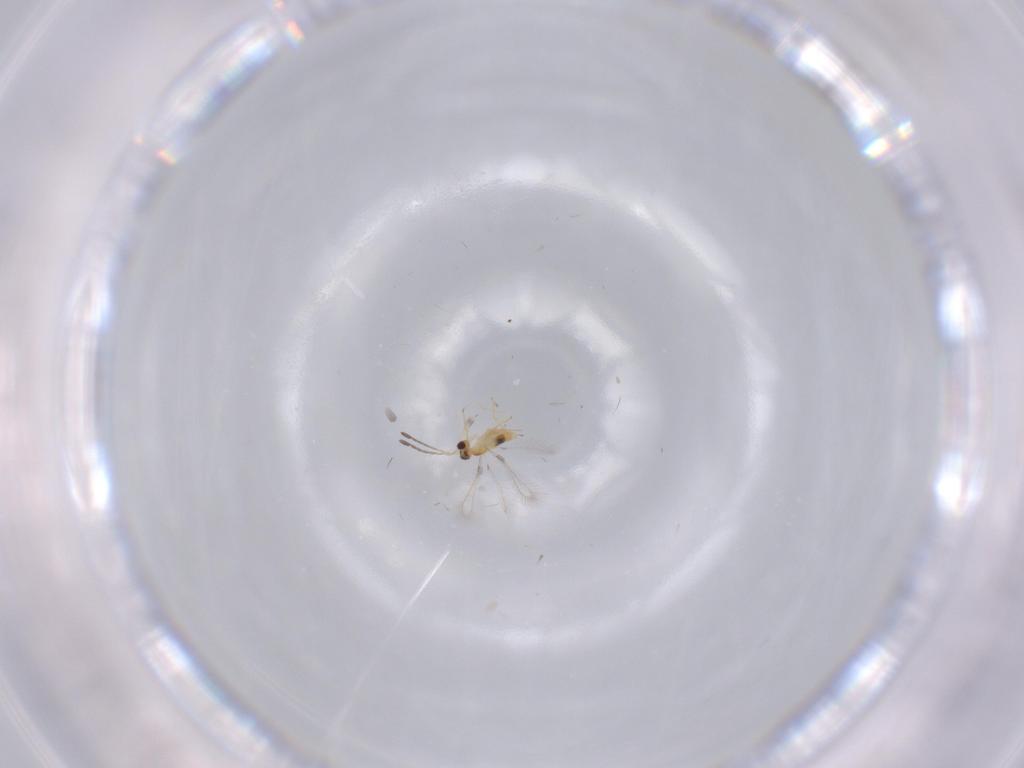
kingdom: Animalia
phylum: Arthropoda
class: Insecta
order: Hymenoptera
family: Mymaridae
